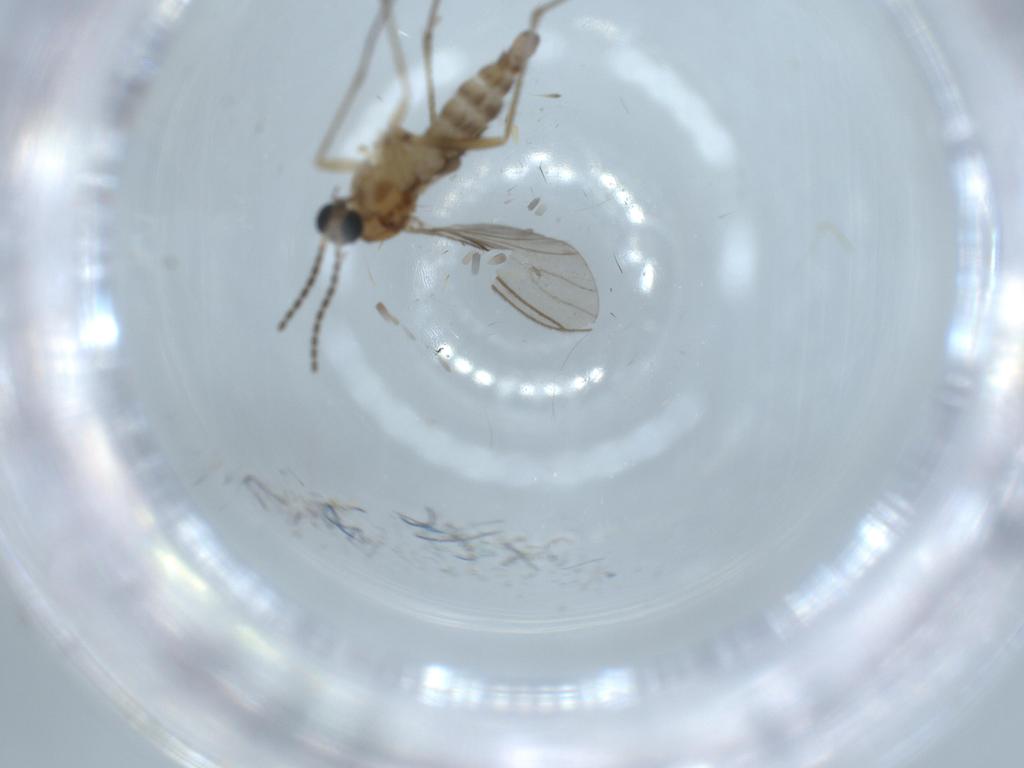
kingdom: Animalia
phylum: Arthropoda
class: Insecta
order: Diptera
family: Sciaridae
